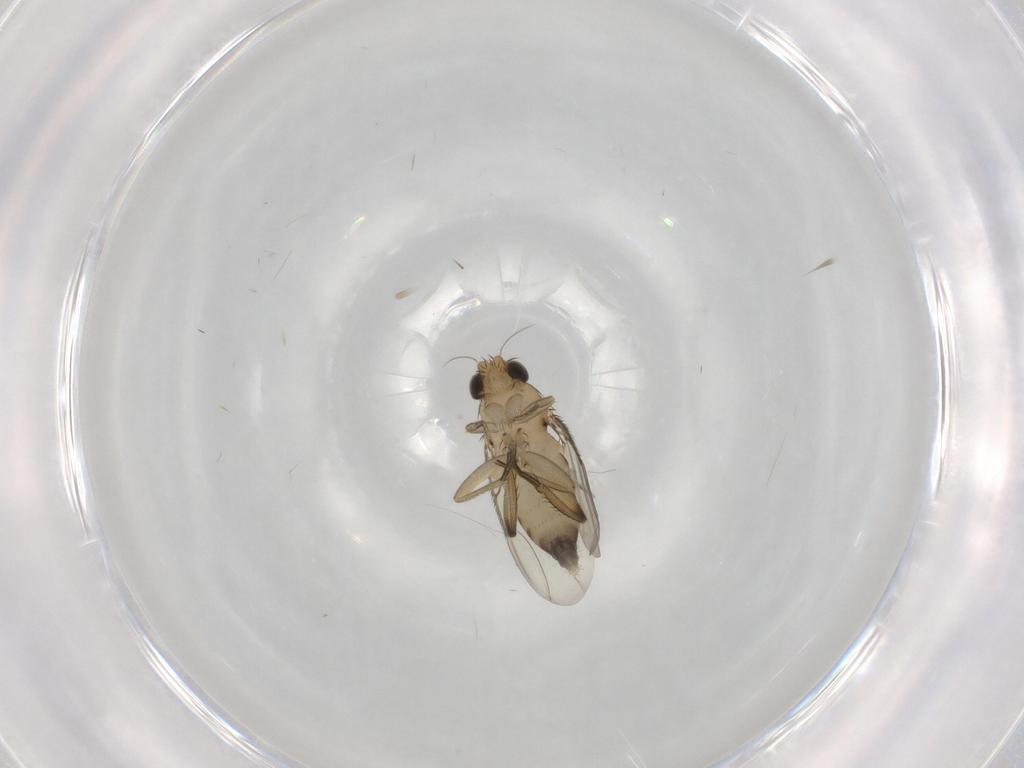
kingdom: Animalia
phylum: Arthropoda
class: Insecta
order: Diptera
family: Phoridae
